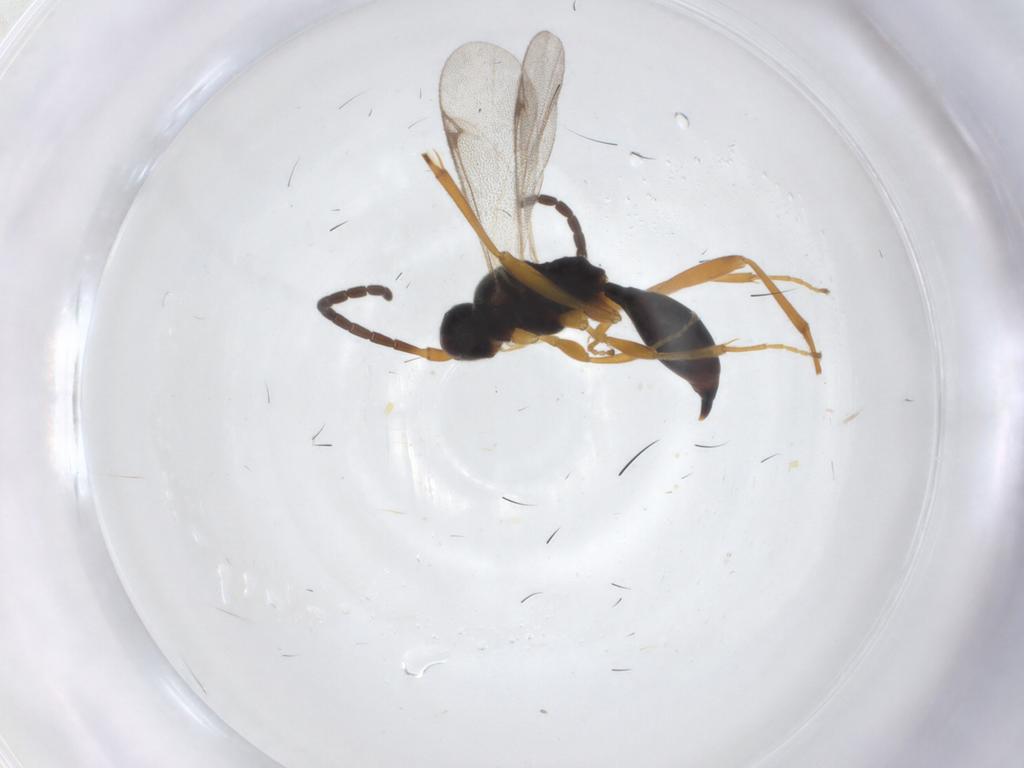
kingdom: Animalia
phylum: Arthropoda
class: Insecta
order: Hymenoptera
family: Proctotrupidae
